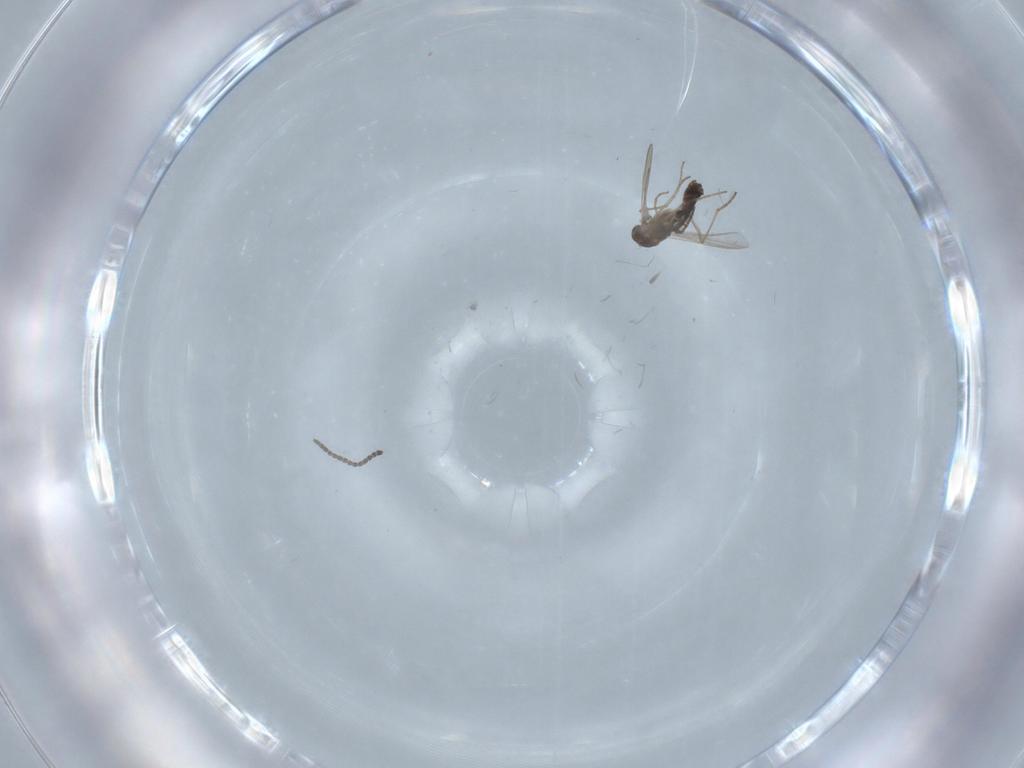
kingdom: Animalia
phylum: Arthropoda
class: Insecta
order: Diptera
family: Chironomidae
